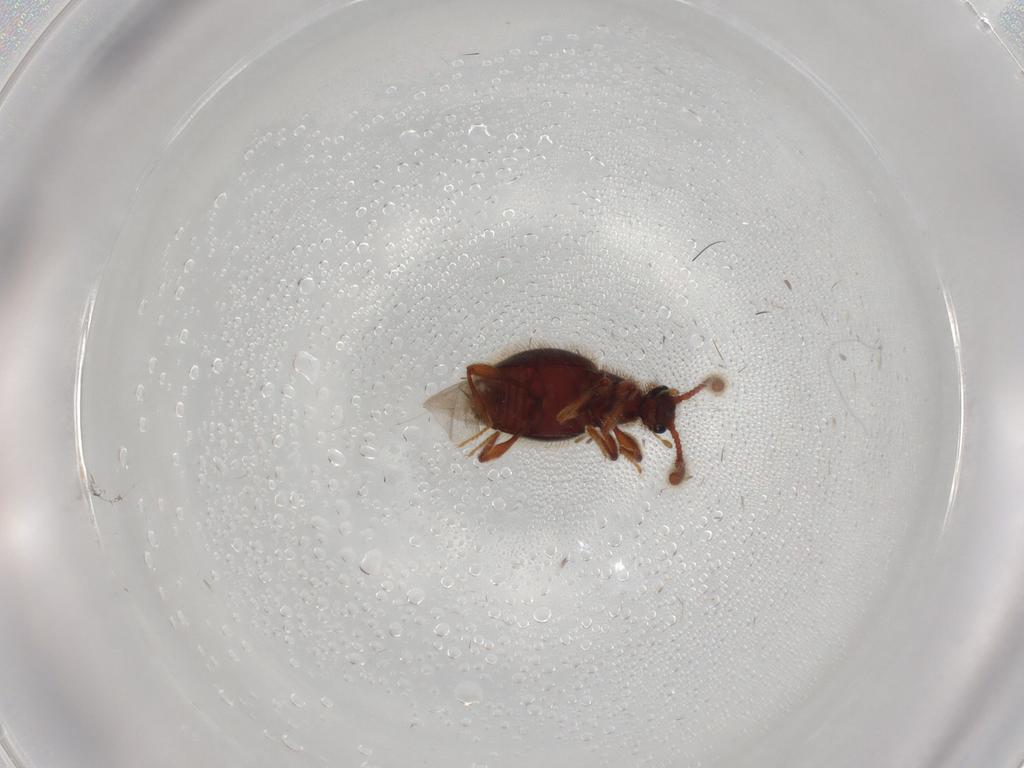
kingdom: Animalia
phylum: Arthropoda
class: Insecta
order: Coleoptera
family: Staphylinidae
